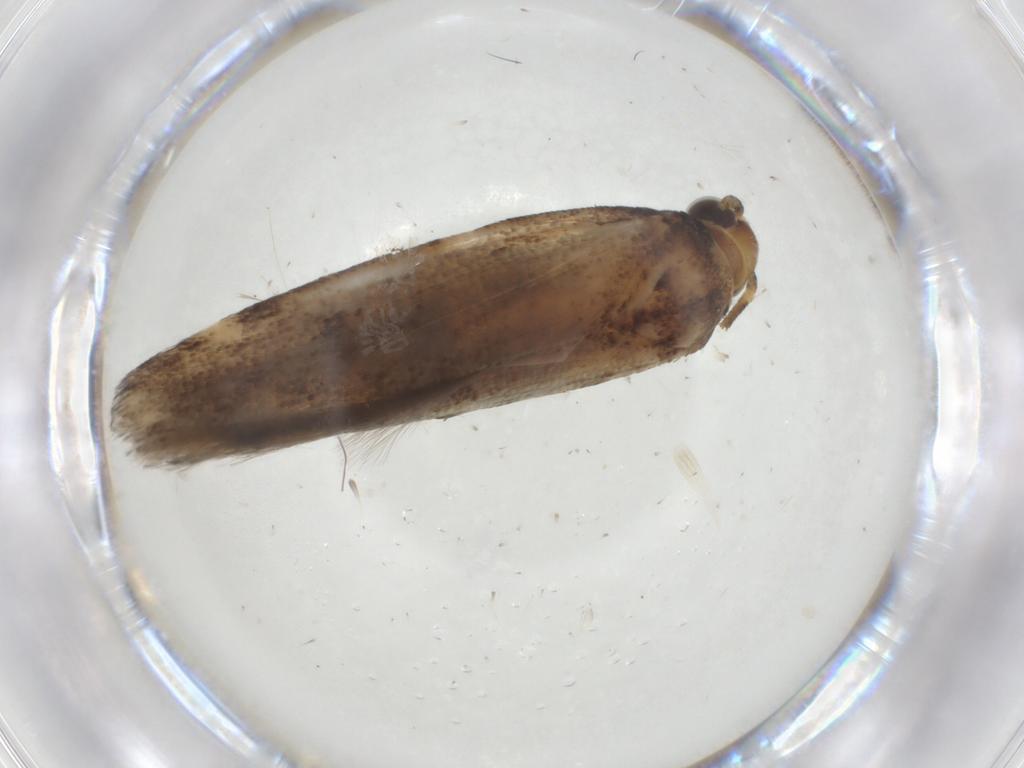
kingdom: Animalia
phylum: Arthropoda
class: Insecta
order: Lepidoptera
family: Gelechiidae
